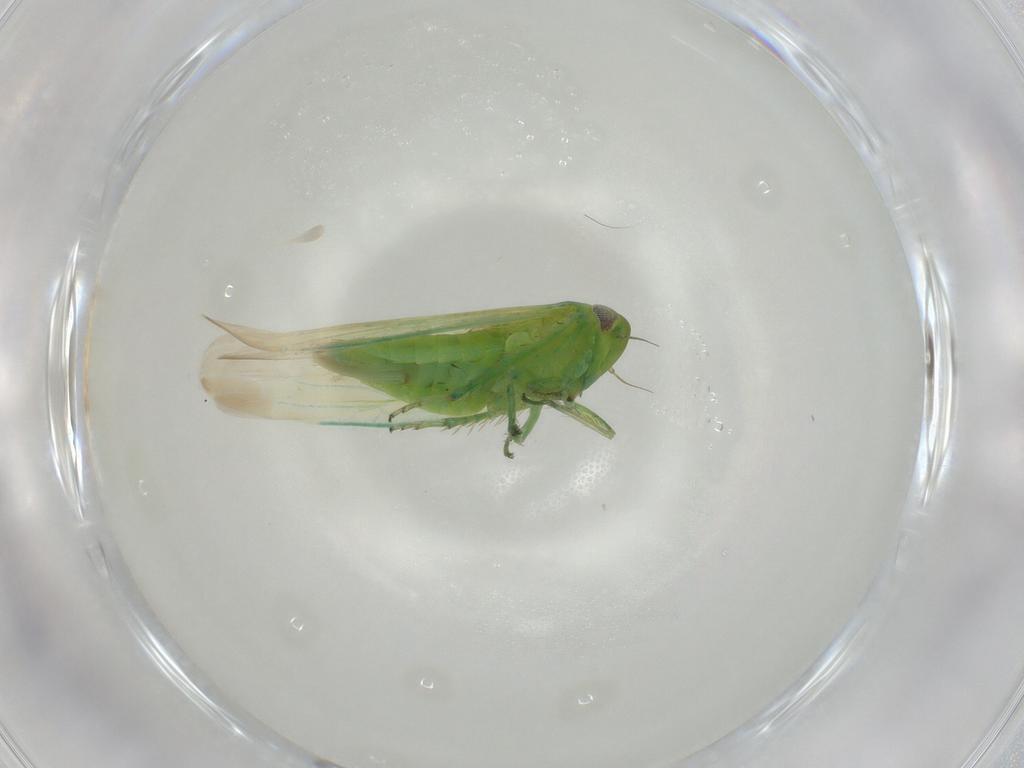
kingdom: Animalia
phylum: Arthropoda
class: Insecta
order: Hemiptera
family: Cicadellidae
